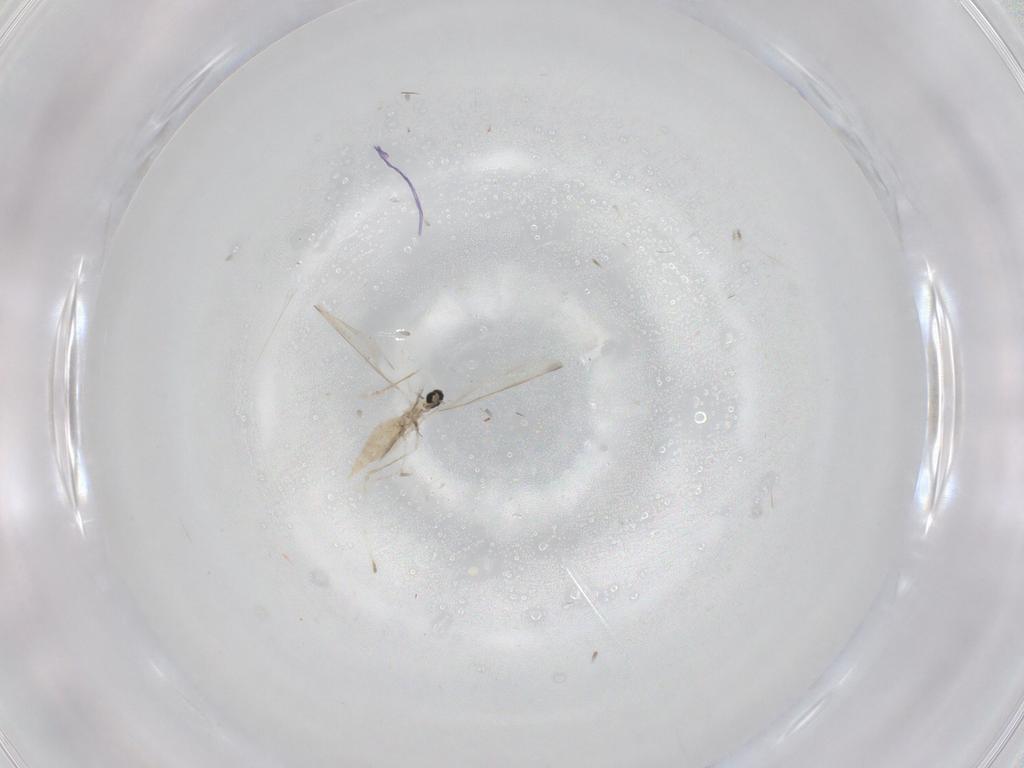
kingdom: Animalia
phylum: Arthropoda
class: Insecta
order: Diptera
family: Cecidomyiidae
